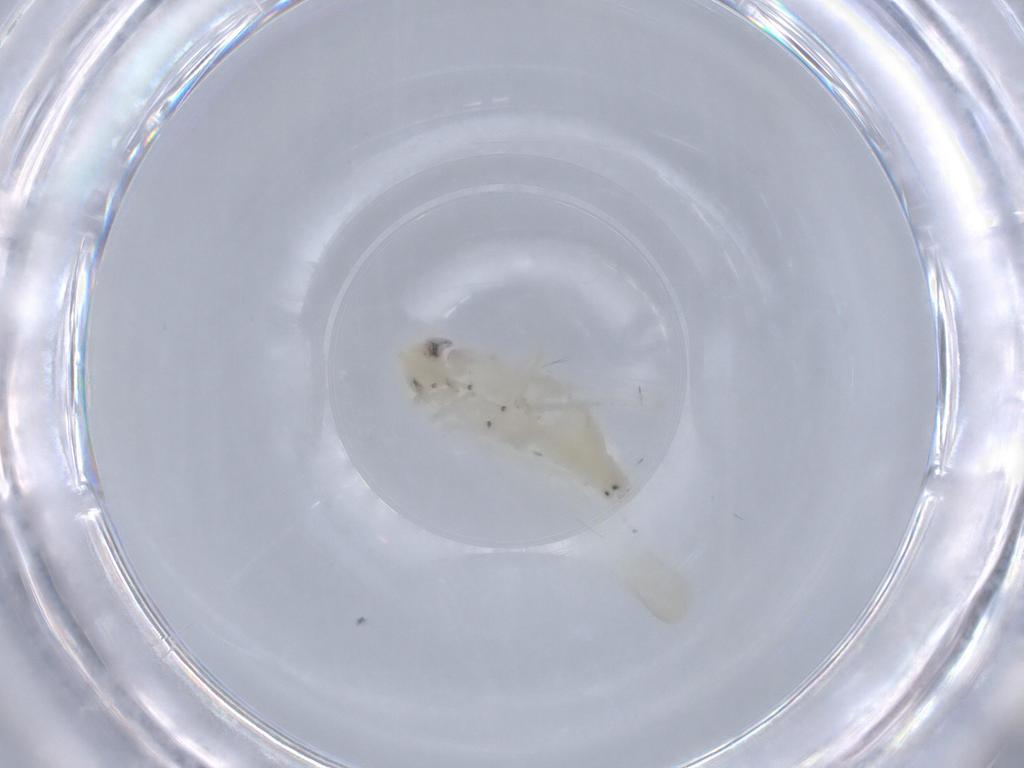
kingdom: Animalia
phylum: Arthropoda
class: Insecta
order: Hemiptera
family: Cicadellidae
